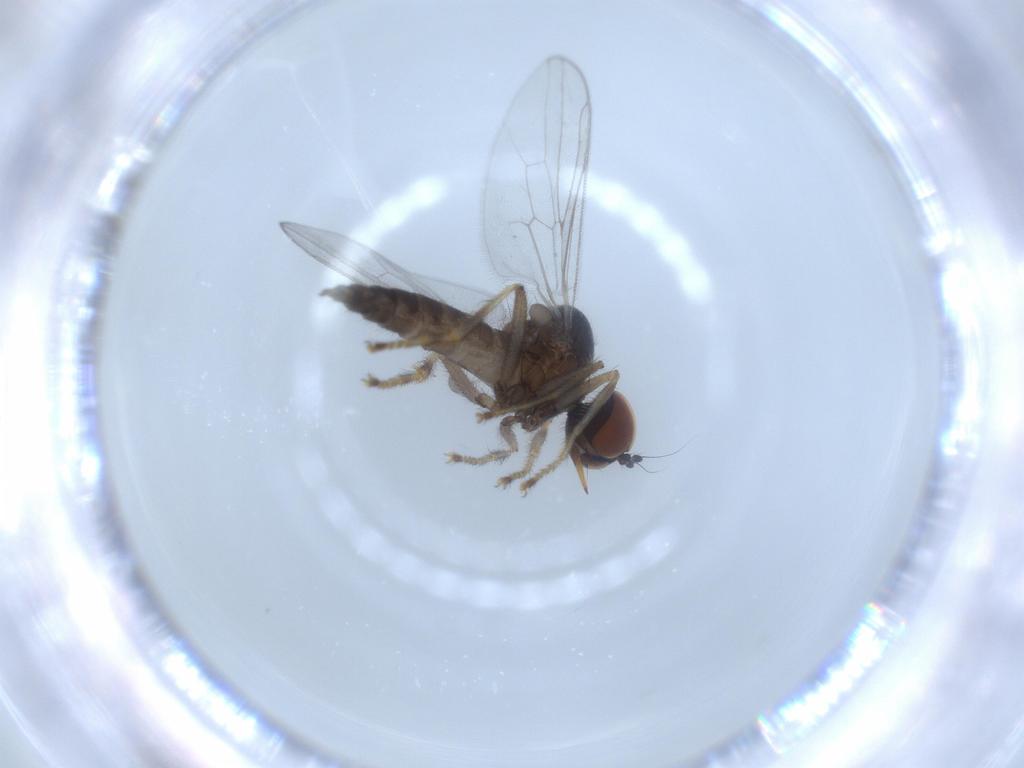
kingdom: Animalia
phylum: Arthropoda
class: Insecta
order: Diptera
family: Hybotidae
